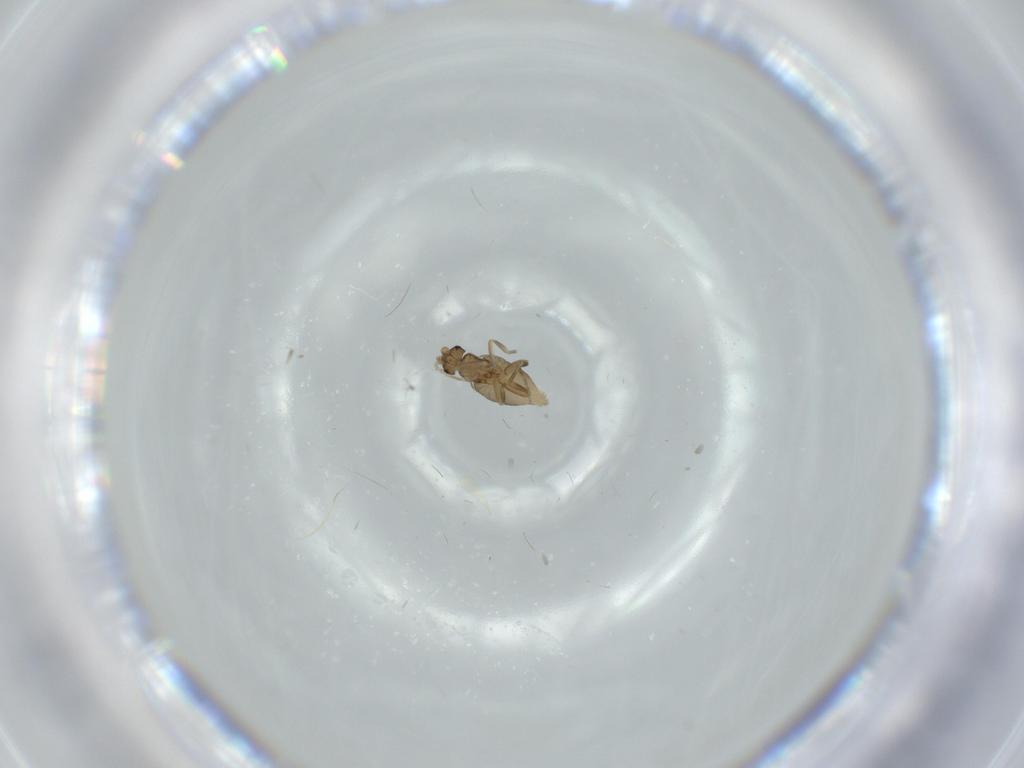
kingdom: Animalia
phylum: Arthropoda
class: Insecta
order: Diptera
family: Phoridae
